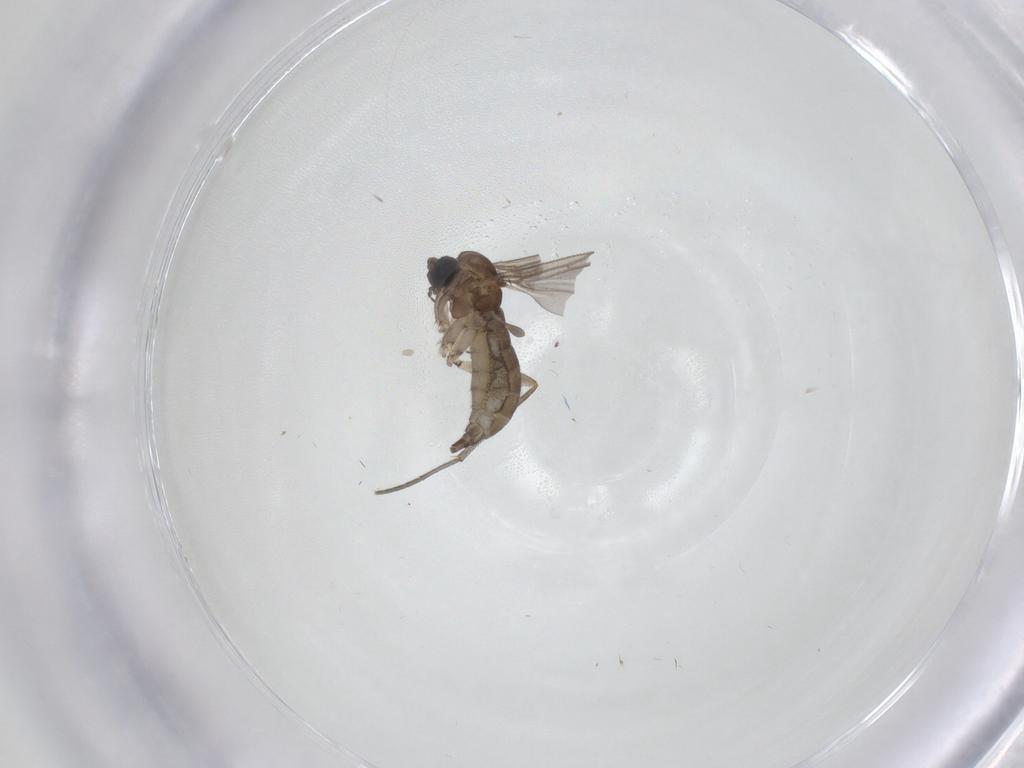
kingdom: Animalia
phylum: Arthropoda
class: Insecta
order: Diptera
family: Sciaridae
